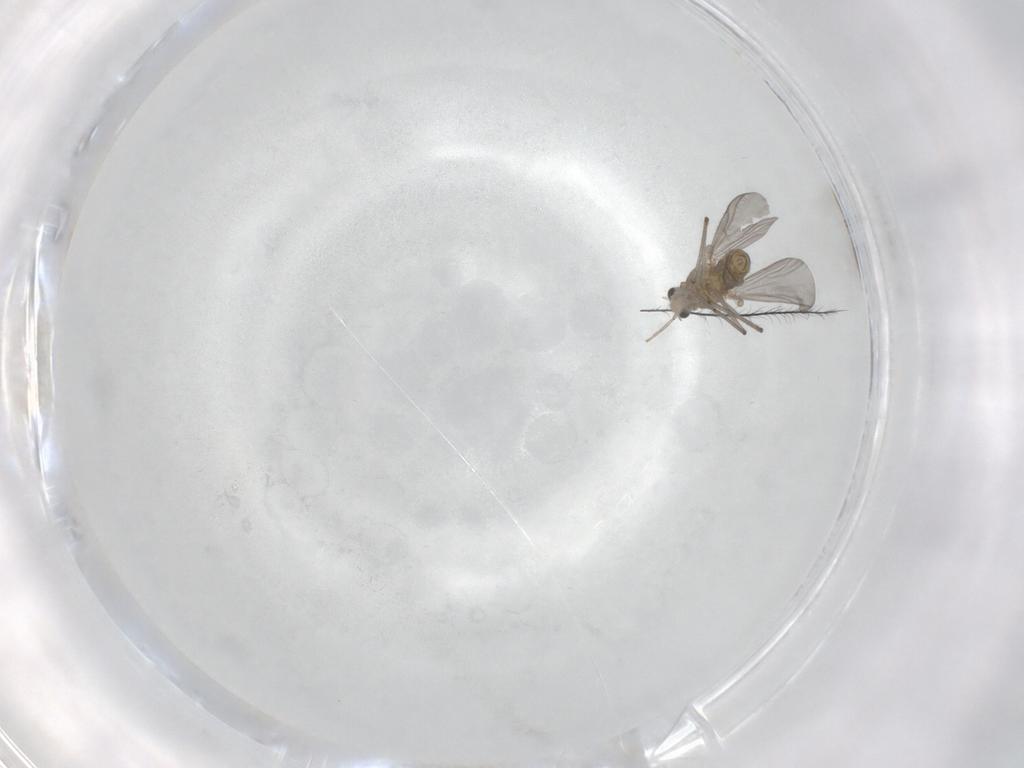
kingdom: Animalia
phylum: Arthropoda
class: Insecta
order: Diptera
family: Chironomidae
